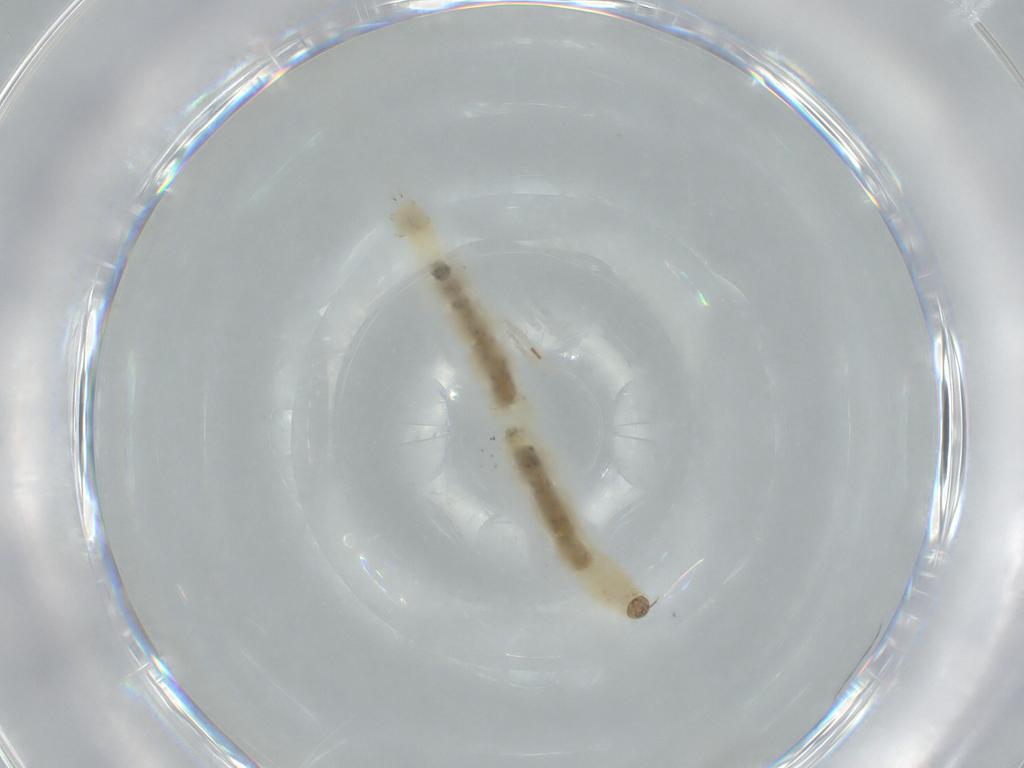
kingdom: Animalia
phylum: Arthropoda
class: Insecta
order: Diptera
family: Chironomidae
